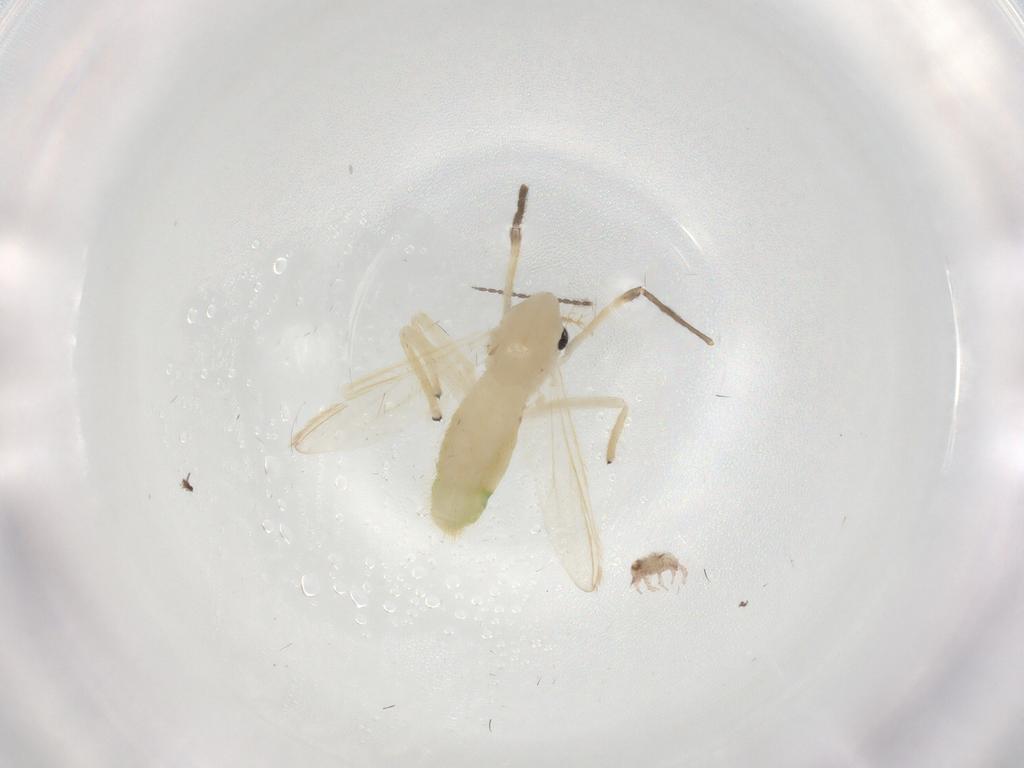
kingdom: Animalia
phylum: Arthropoda
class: Insecta
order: Diptera
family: Chironomidae
